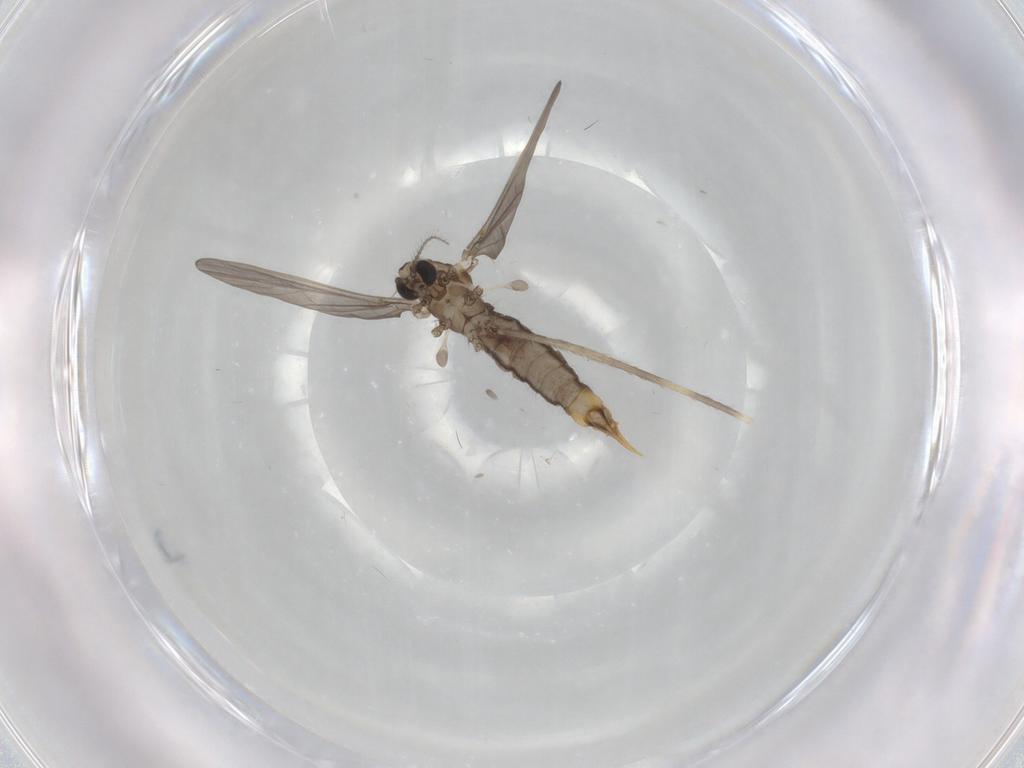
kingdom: Animalia
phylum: Arthropoda
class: Insecta
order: Diptera
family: Limoniidae
